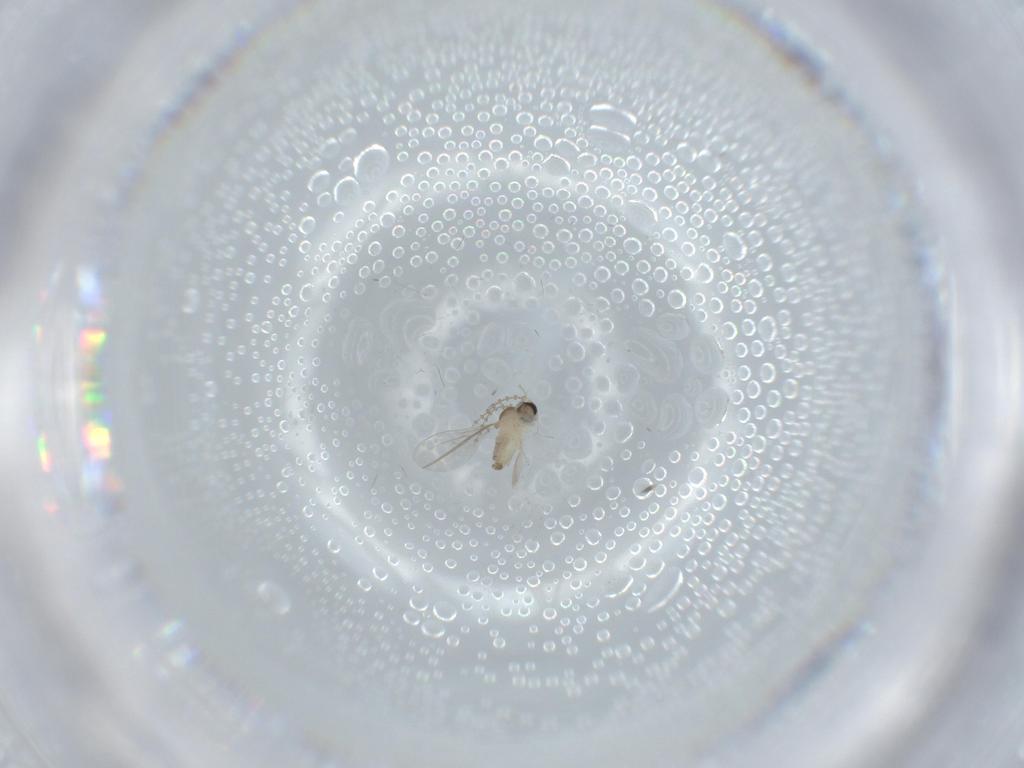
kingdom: Animalia
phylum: Arthropoda
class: Insecta
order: Diptera
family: Cecidomyiidae
